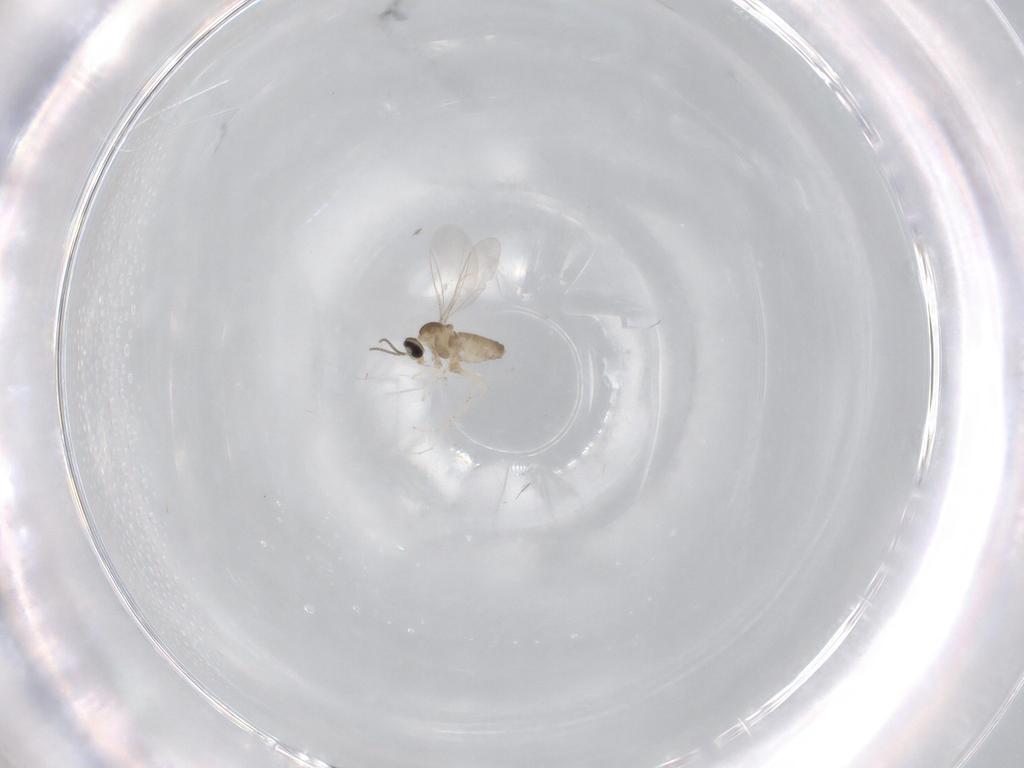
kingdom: Animalia
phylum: Arthropoda
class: Insecta
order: Diptera
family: Cecidomyiidae
